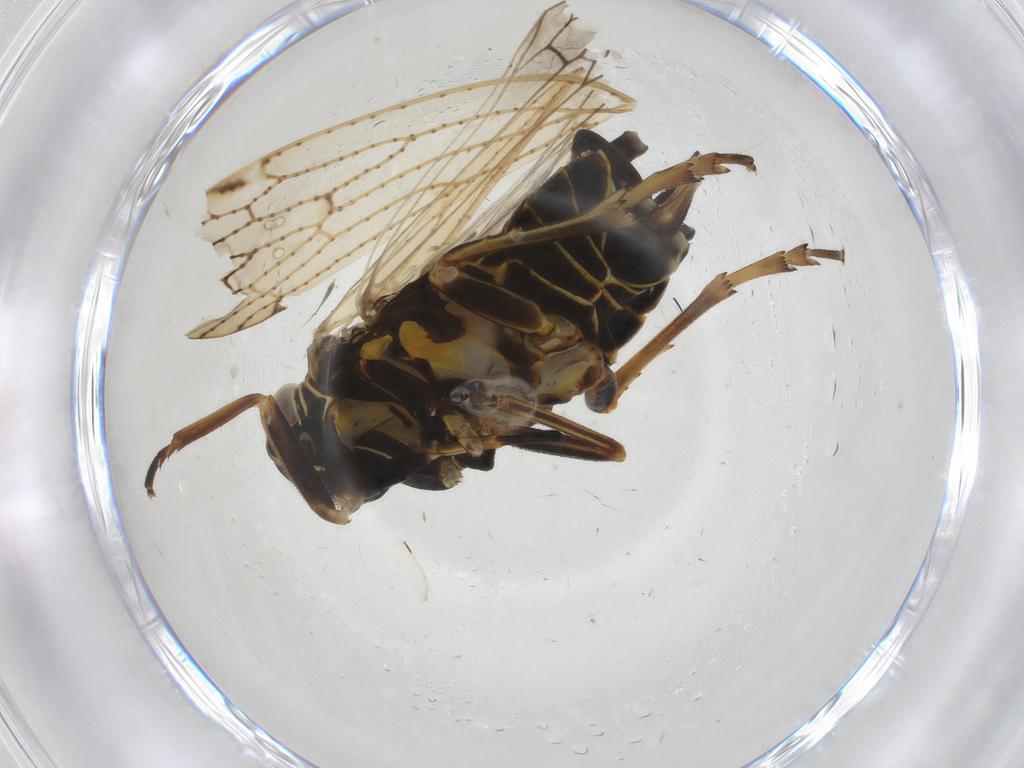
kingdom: Animalia
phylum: Arthropoda
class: Insecta
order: Hemiptera
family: Cixiidae
